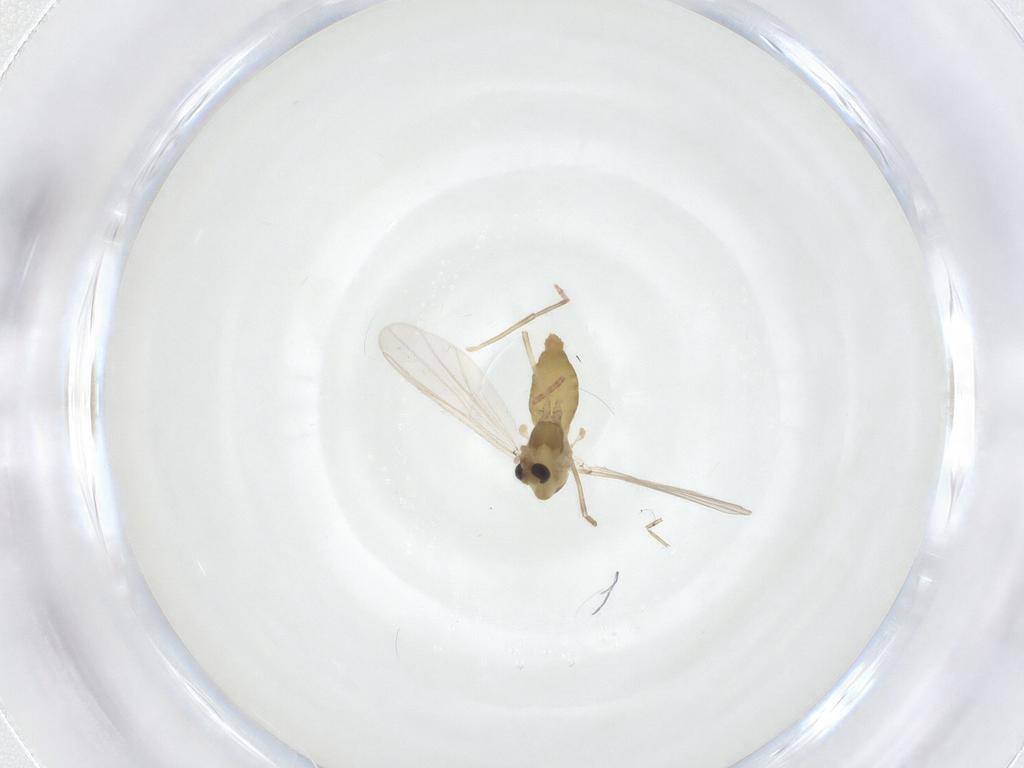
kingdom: Animalia
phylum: Arthropoda
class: Insecta
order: Diptera
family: Chironomidae
